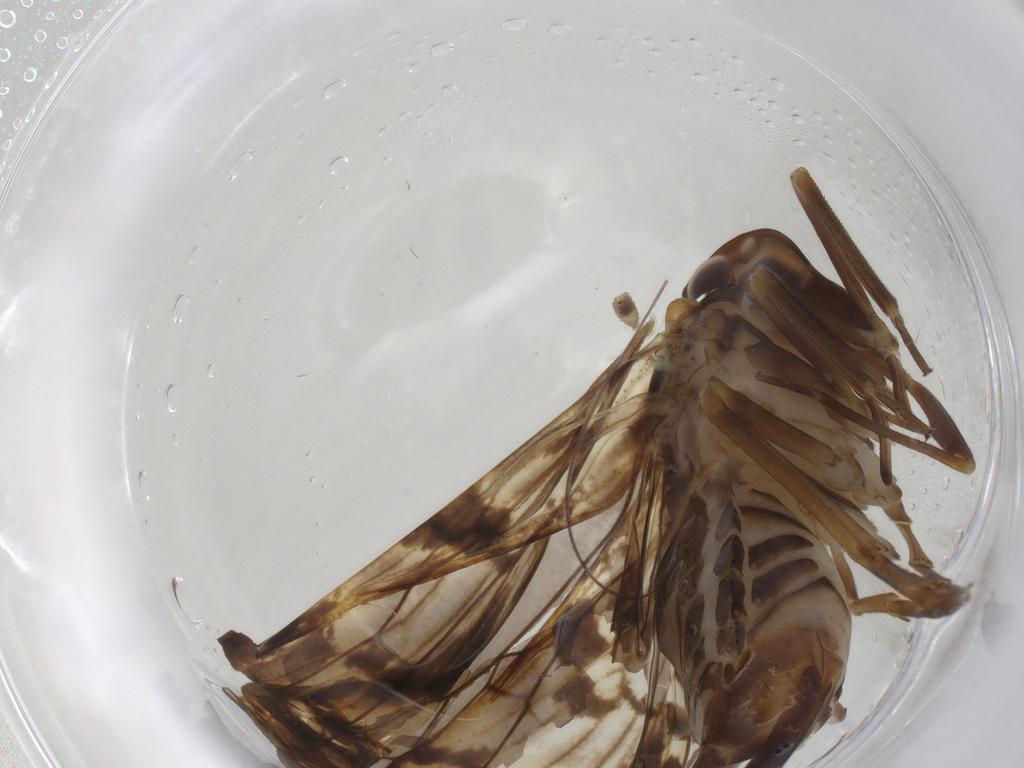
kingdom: Animalia
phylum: Arthropoda
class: Insecta
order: Hemiptera
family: Cixiidae
